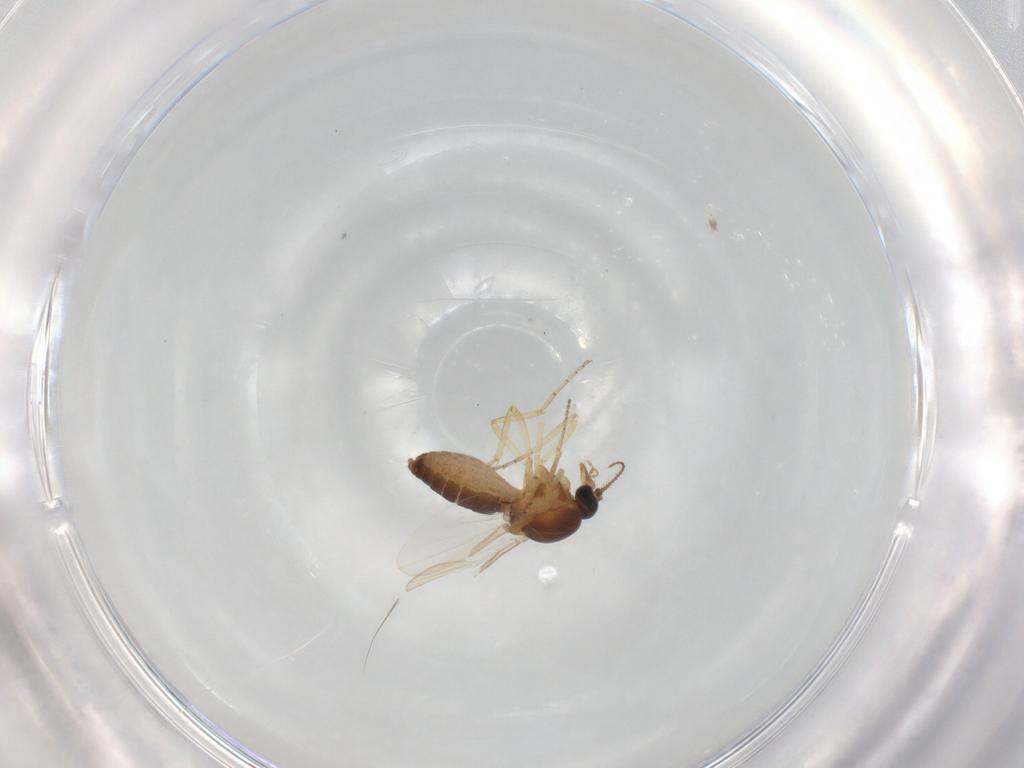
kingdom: Animalia
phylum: Arthropoda
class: Insecta
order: Diptera
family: Ceratopogonidae
